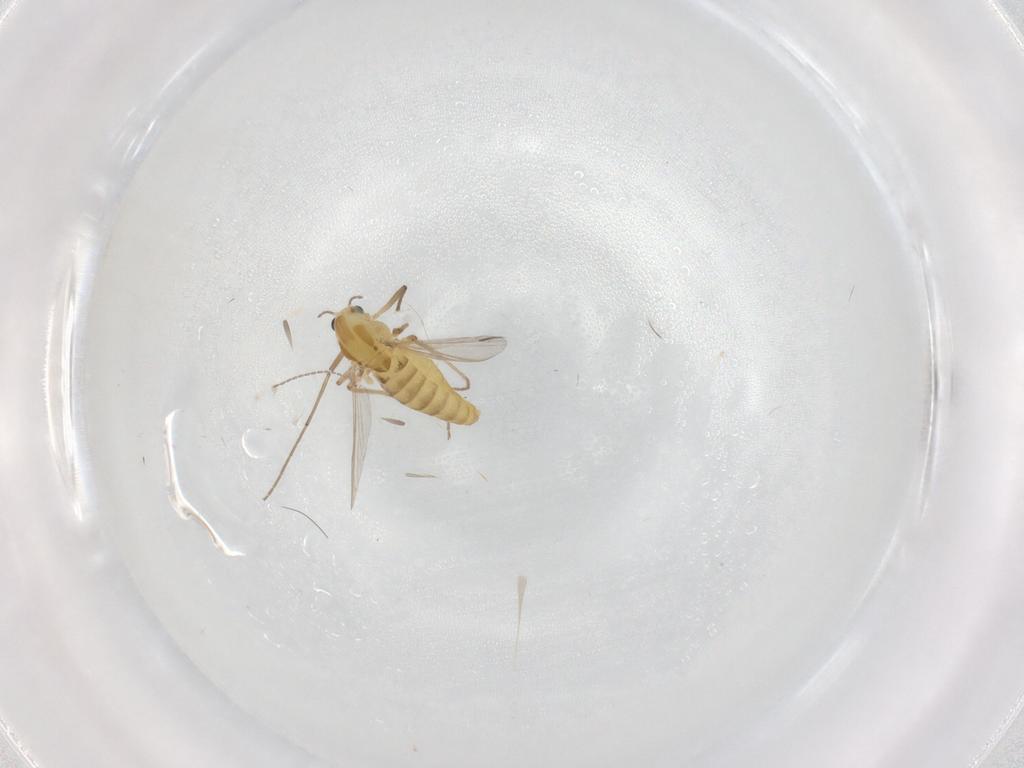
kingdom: Animalia
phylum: Arthropoda
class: Insecta
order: Diptera
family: Chironomidae
